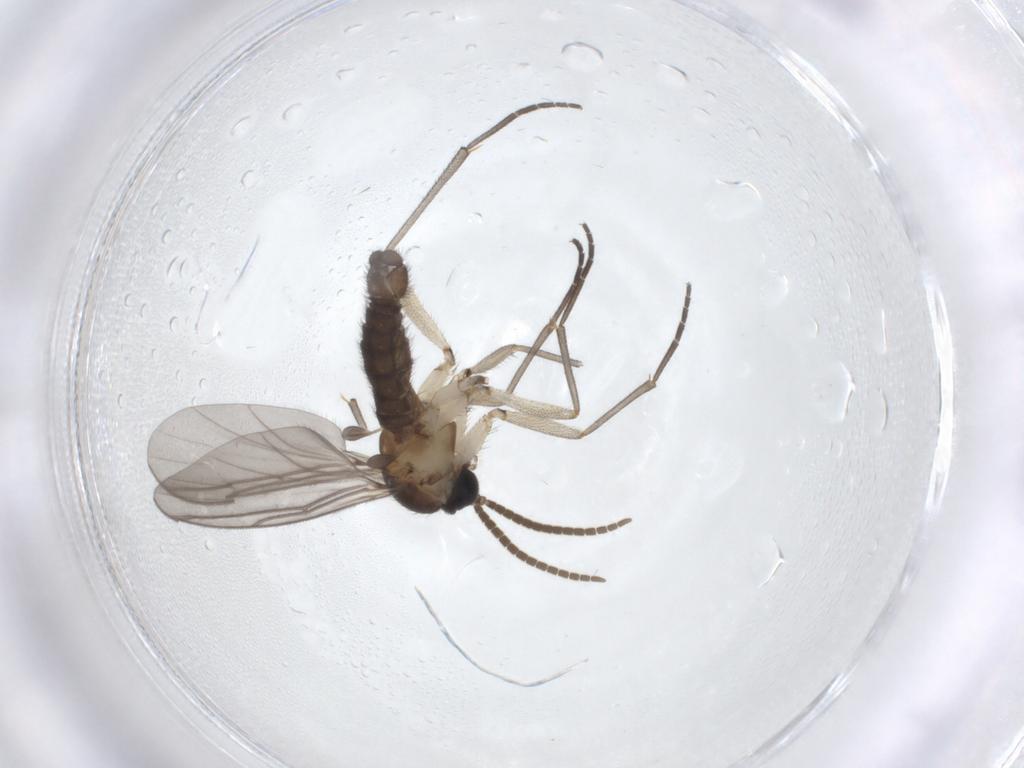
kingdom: Animalia
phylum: Arthropoda
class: Insecta
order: Diptera
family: Sciaridae
